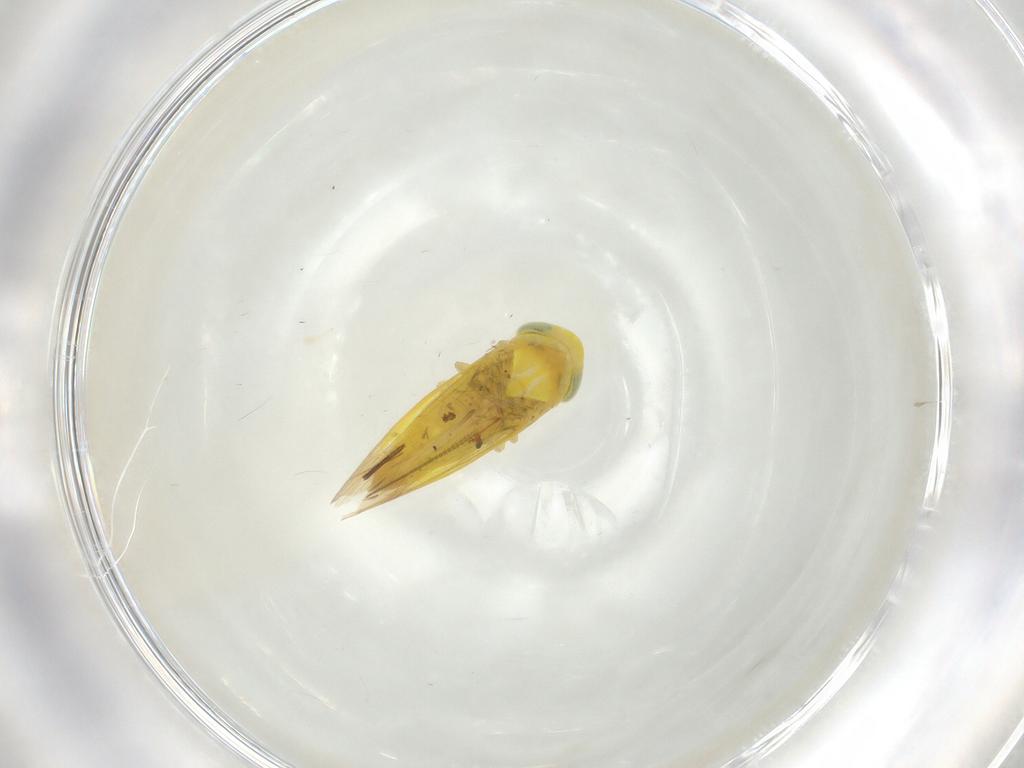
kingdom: Animalia
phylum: Arthropoda
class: Insecta
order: Hemiptera
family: Cicadellidae
